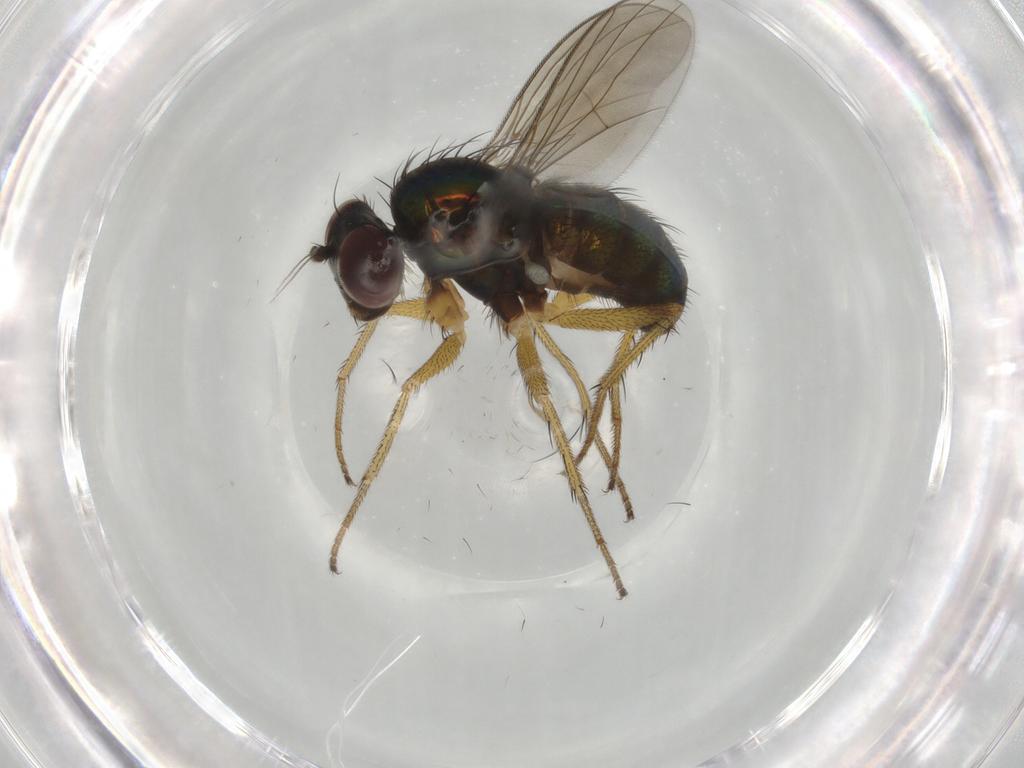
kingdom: Animalia
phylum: Arthropoda
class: Insecta
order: Diptera
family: Dolichopodidae
